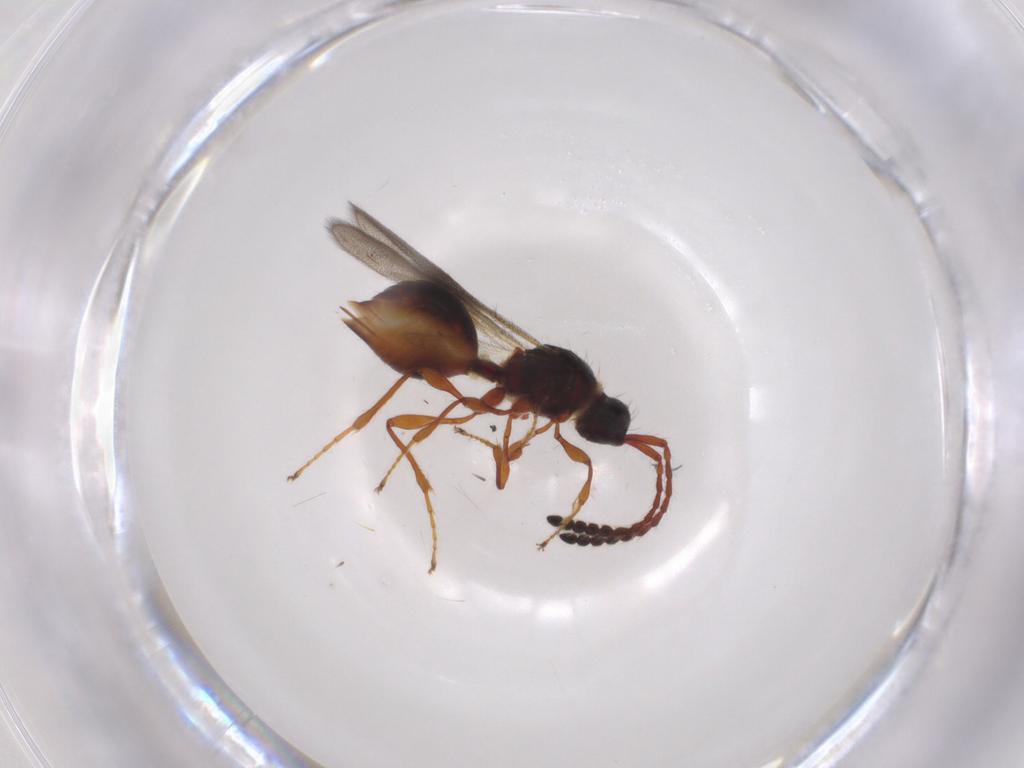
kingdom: Animalia
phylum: Arthropoda
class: Insecta
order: Hymenoptera
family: Diapriidae
